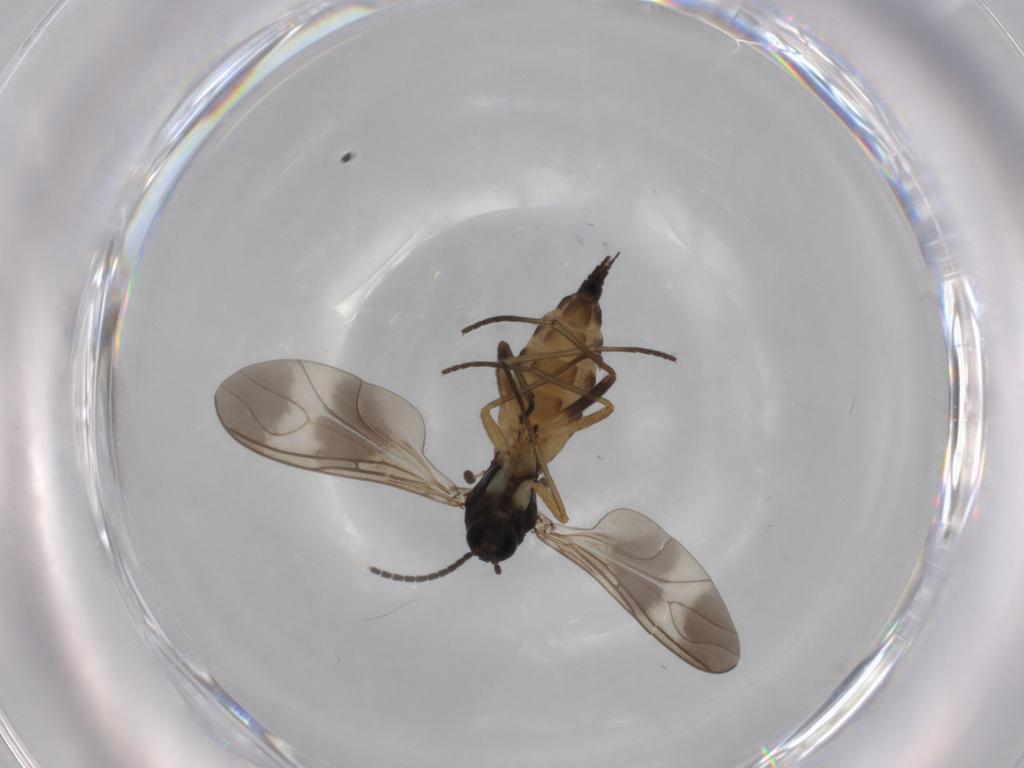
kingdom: Animalia
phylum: Arthropoda
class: Insecta
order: Diptera
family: Sciaridae
